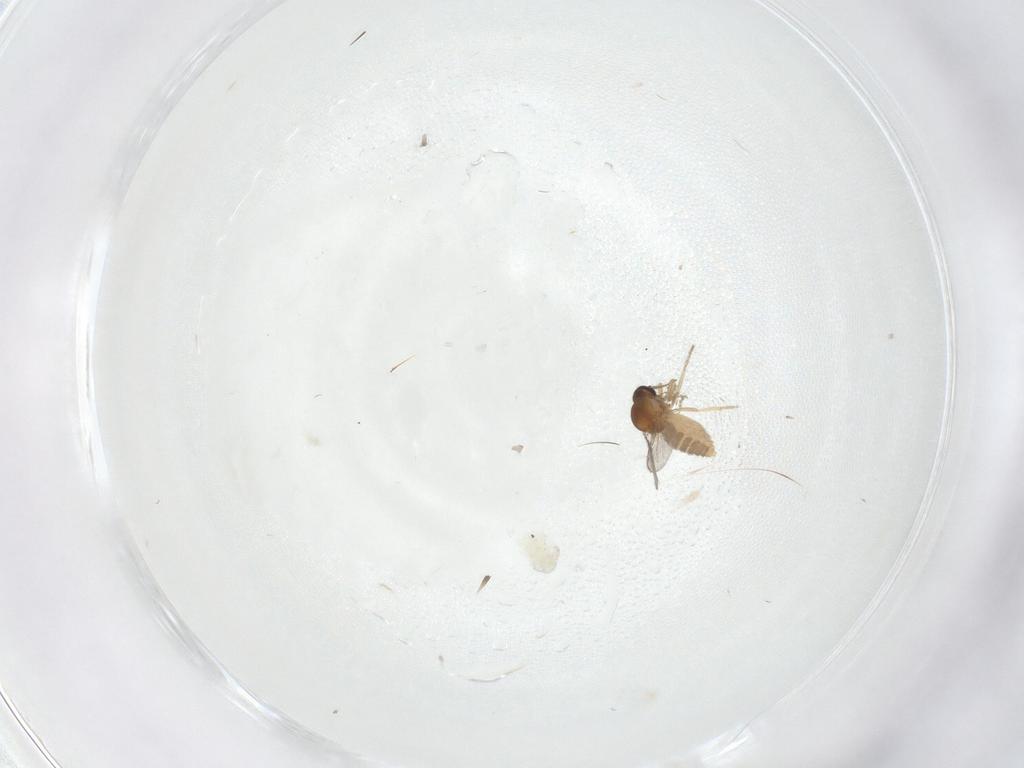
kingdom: Animalia
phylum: Arthropoda
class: Insecta
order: Diptera
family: Ceratopogonidae
